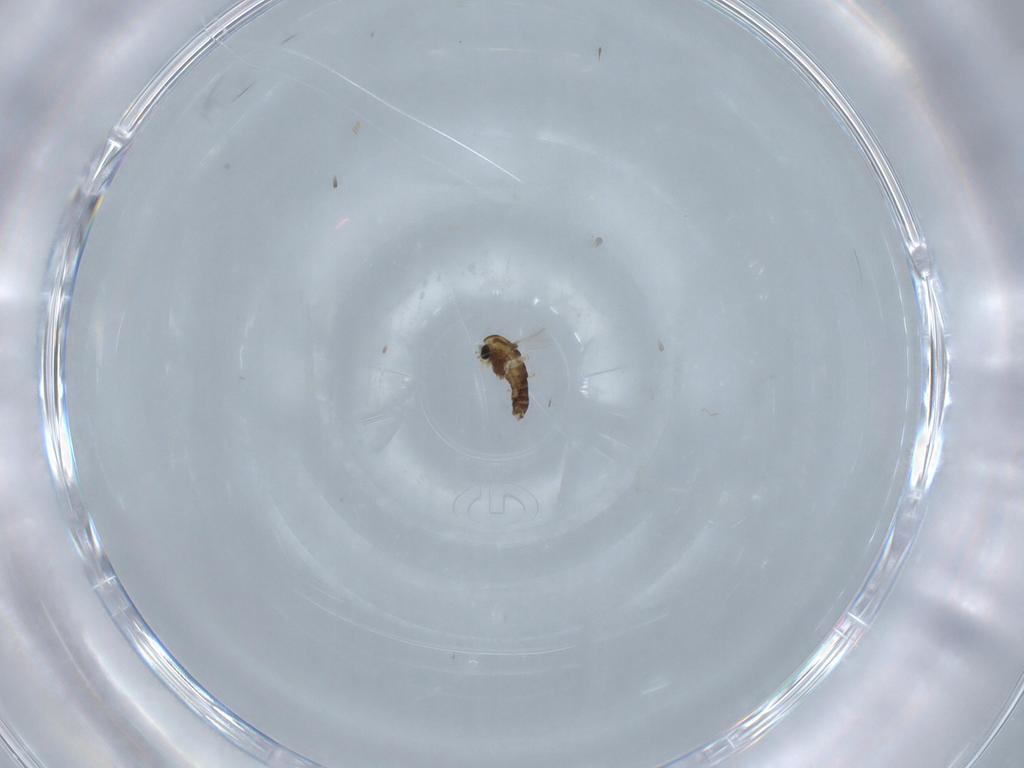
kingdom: Animalia
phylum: Arthropoda
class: Insecta
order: Diptera
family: Chironomidae
